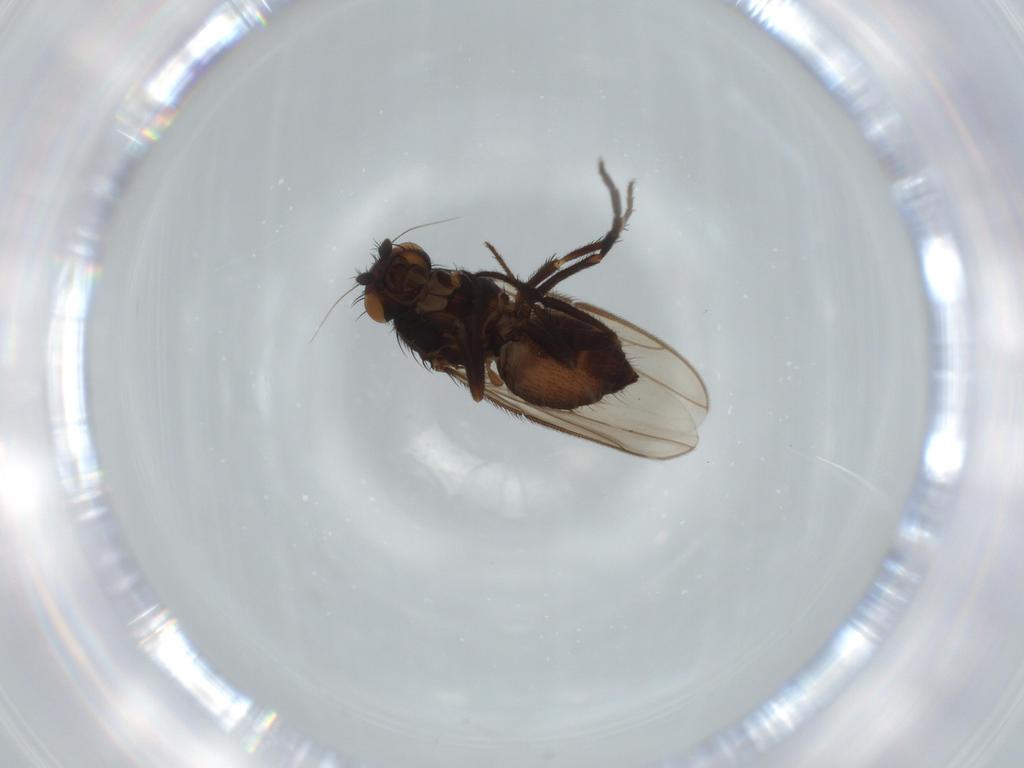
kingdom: Animalia
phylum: Arthropoda
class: Insecta
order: Diptera
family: Sphaeroceridae
